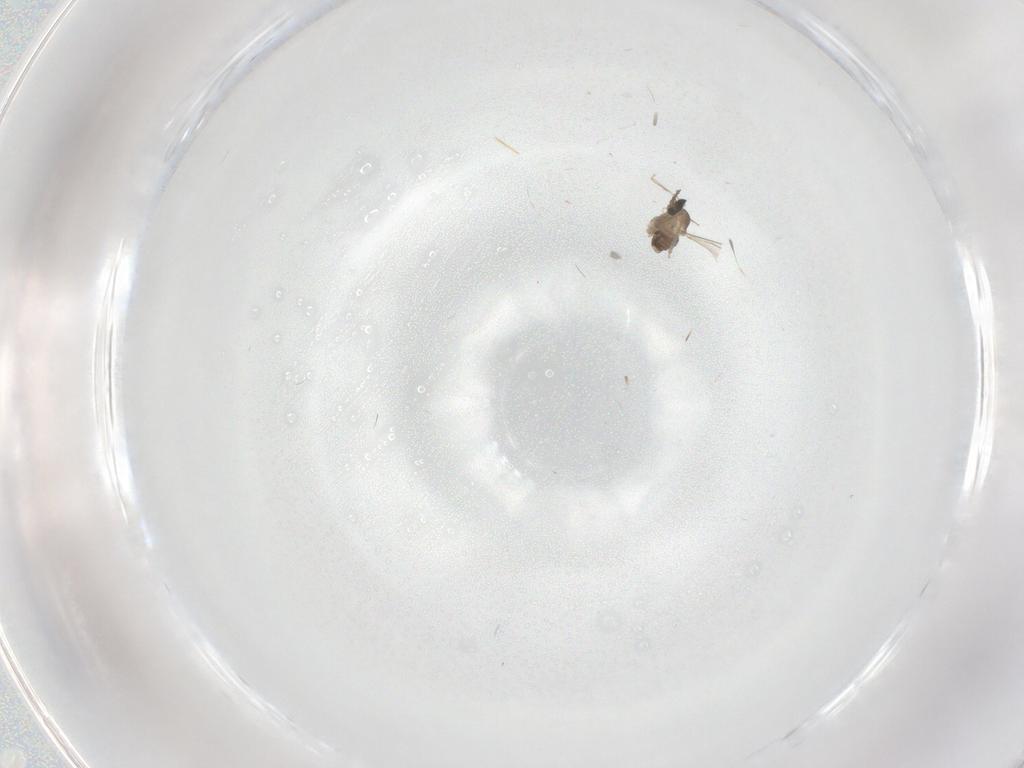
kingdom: Animalia
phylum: Arthropoda
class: Insecta
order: Diptera
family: Cecidomyiidae
